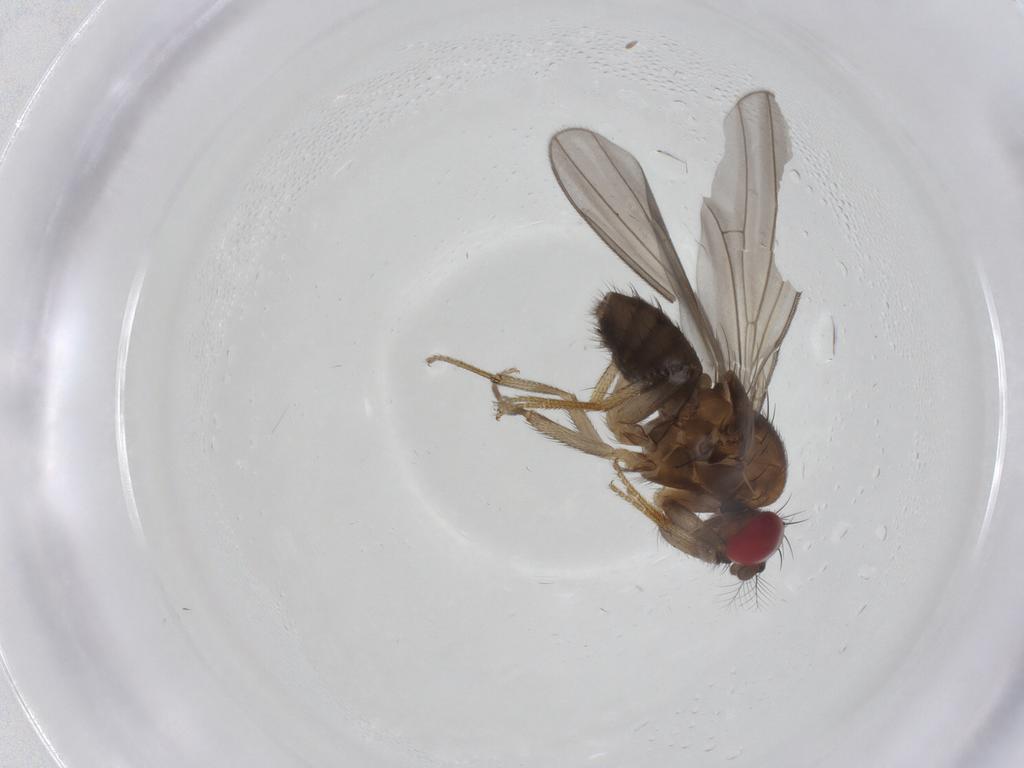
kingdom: Animalia
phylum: Arthropoda
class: Insecta
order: Diptera
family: Drosophilidae
